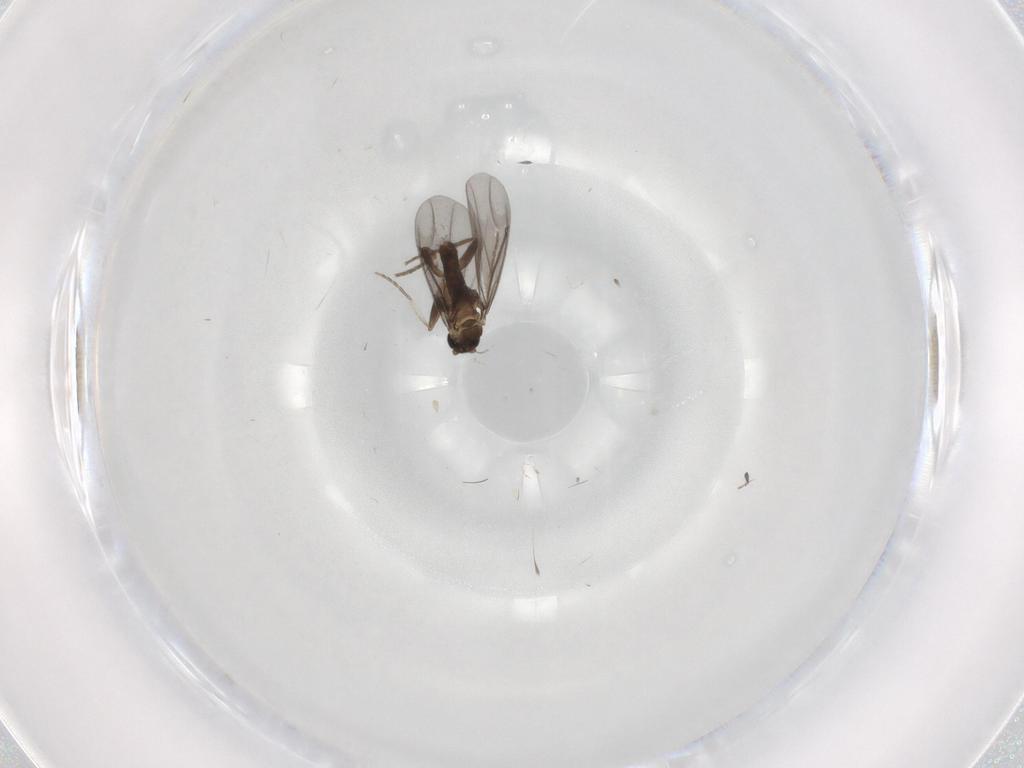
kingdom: Animalia
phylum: Arthropoda
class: Insecta
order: Diptera
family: Phoridae
